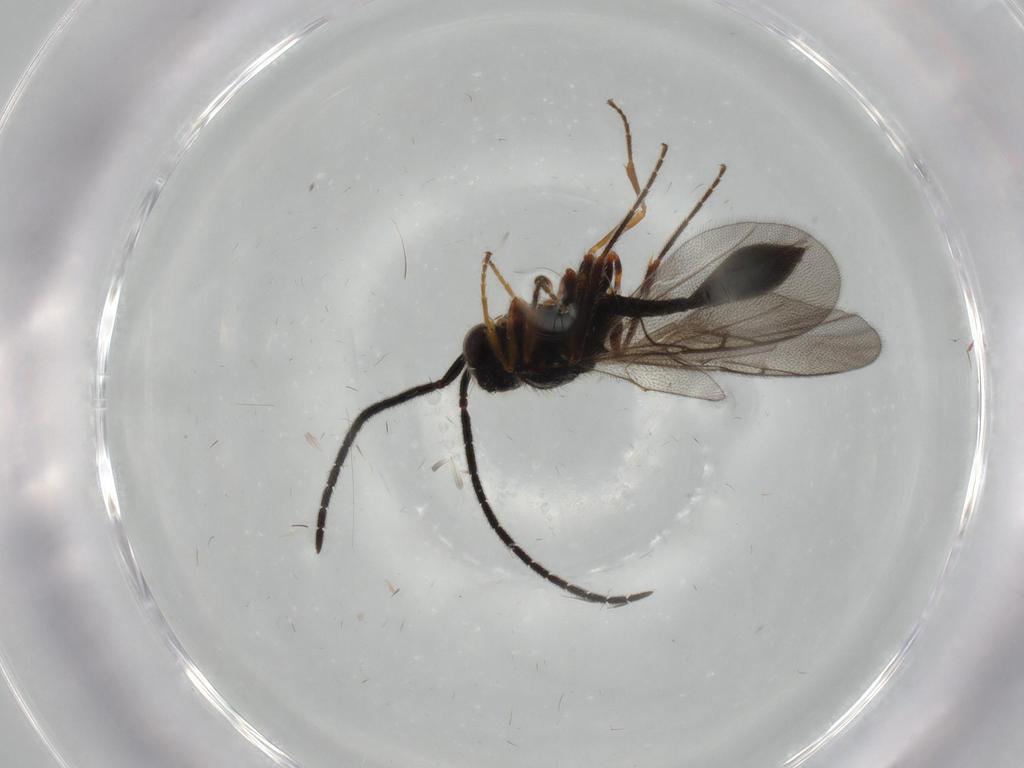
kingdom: Animalia
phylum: Arthropoda
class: Insecta
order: Hymenoptera
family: Diapriidae
